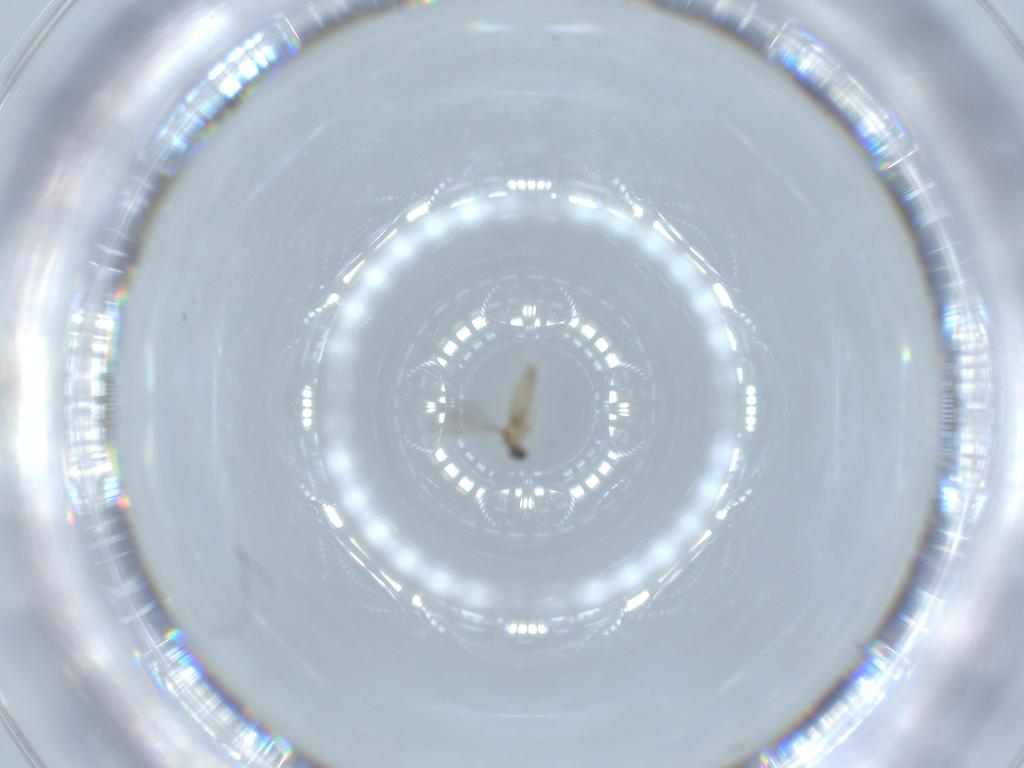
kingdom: Animalia
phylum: Arthropoda
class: Insecta
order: Diptera
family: Cecidomyiidae
